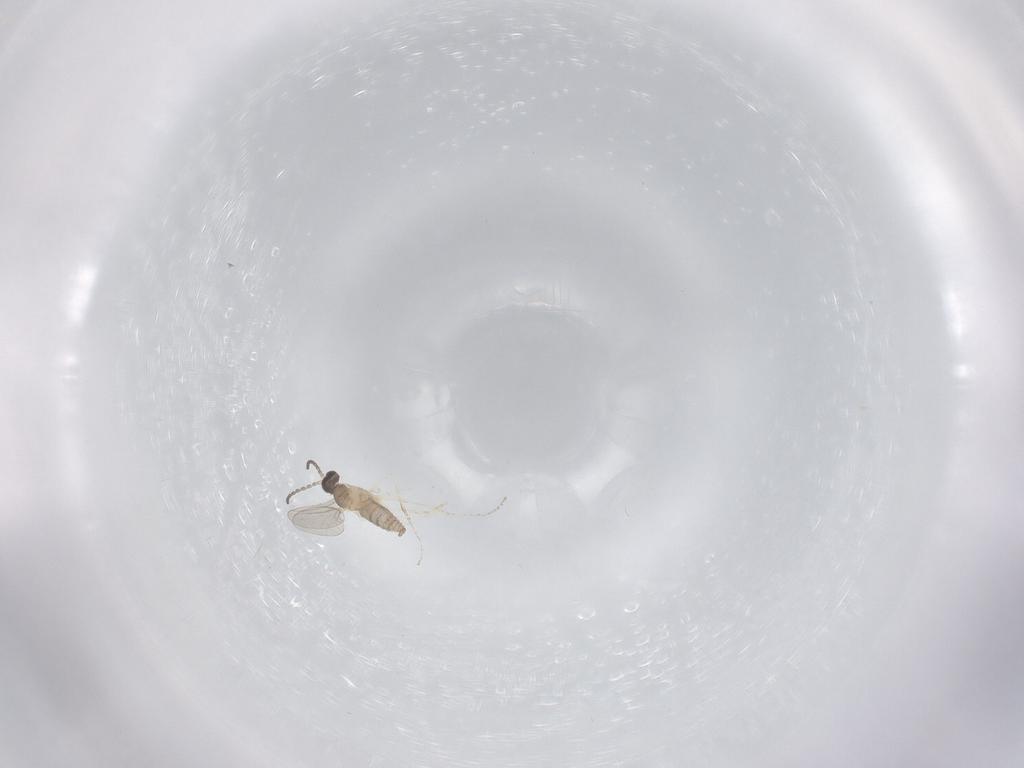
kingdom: Animalia
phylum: Arthropoda
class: Insecta
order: Diptera
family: Cecidomyiidae
